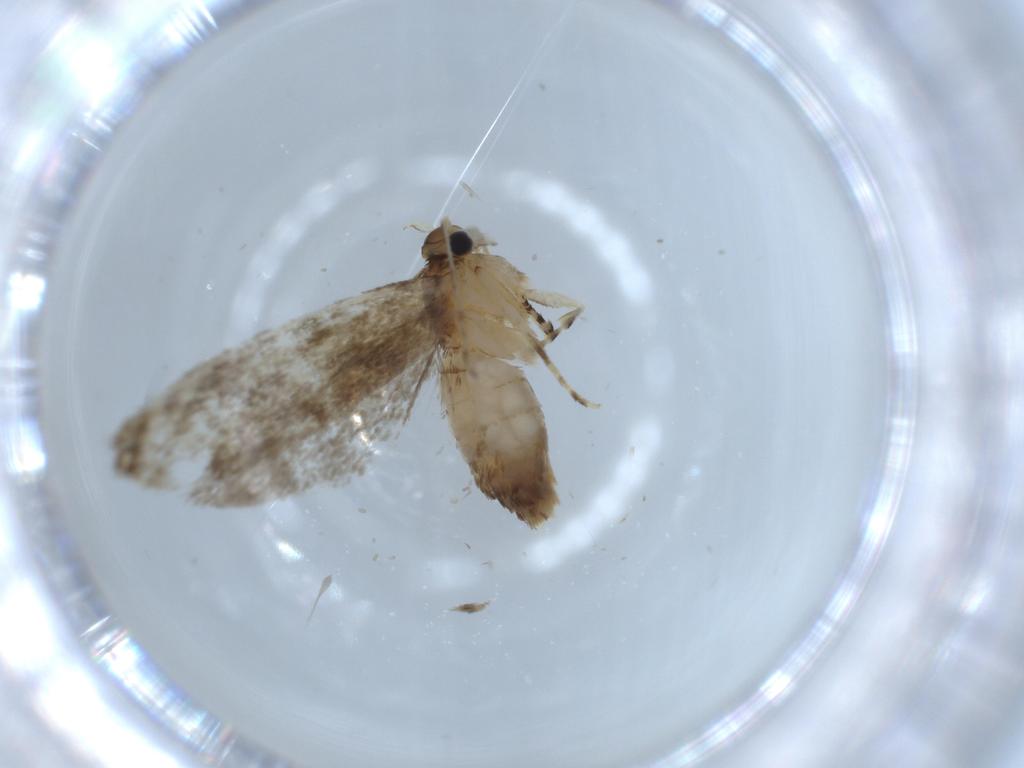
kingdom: Animalia
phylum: Arthropoda
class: Insecta
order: Lepidoptera
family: Tineidae
